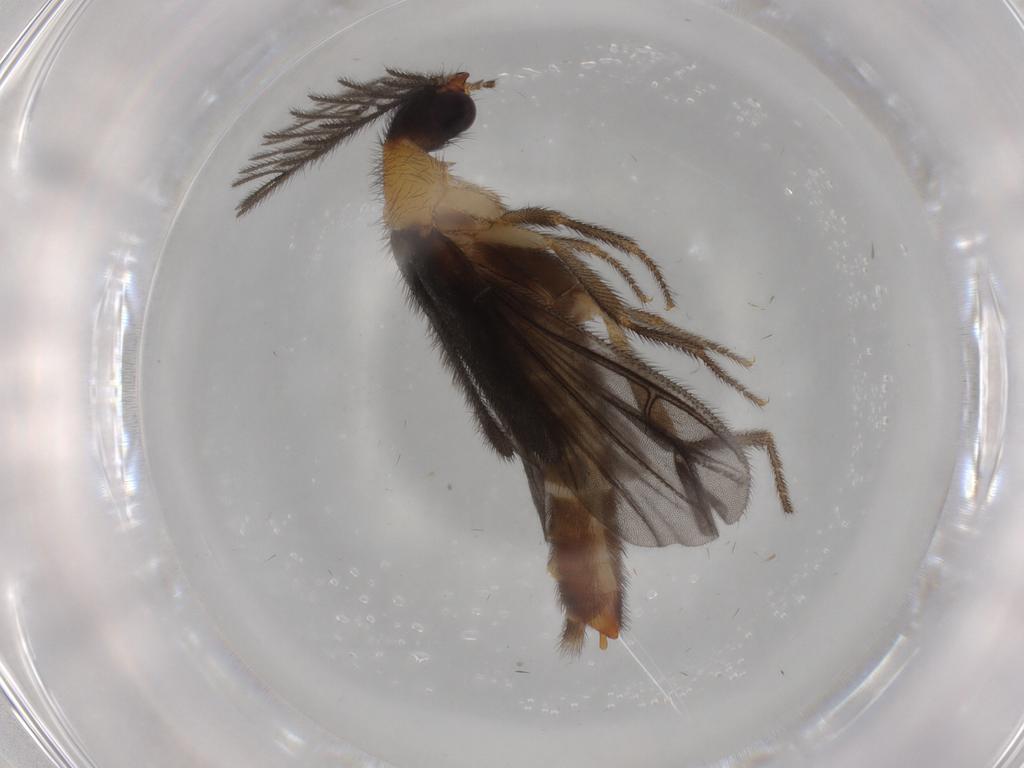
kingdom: Animalia
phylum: Arthropoda
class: Insecta
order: Coleoptera
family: Phengodidae
